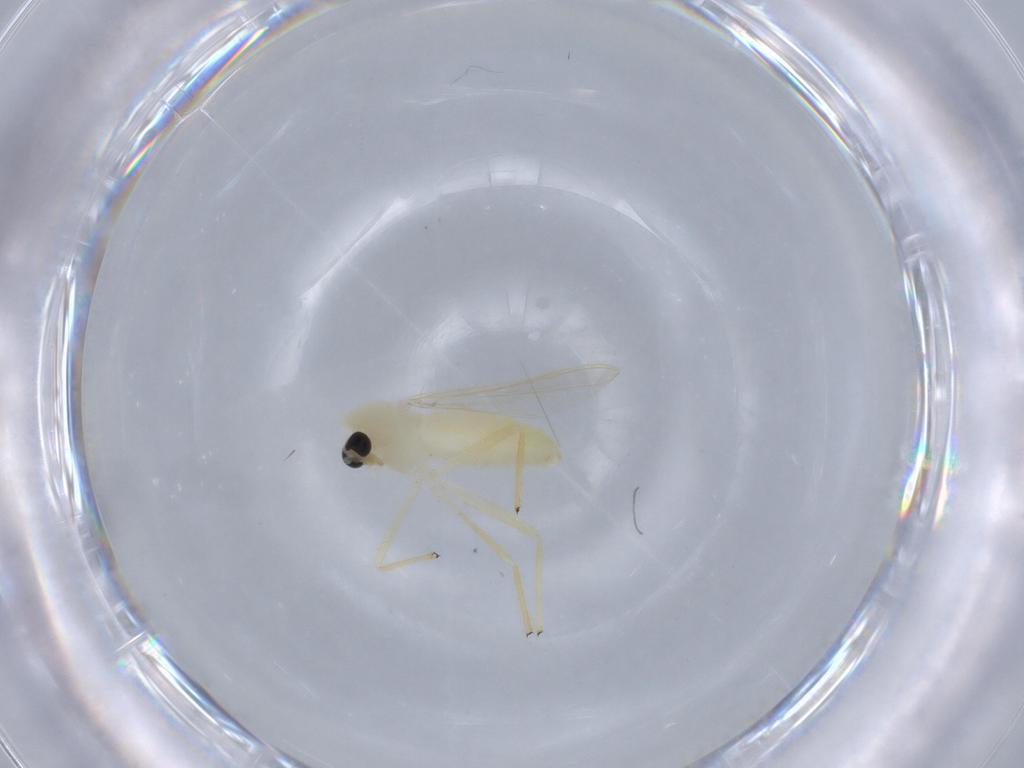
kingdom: Animalia
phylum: Arthropoda
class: Insecta
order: Diptera
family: Chironomidae
